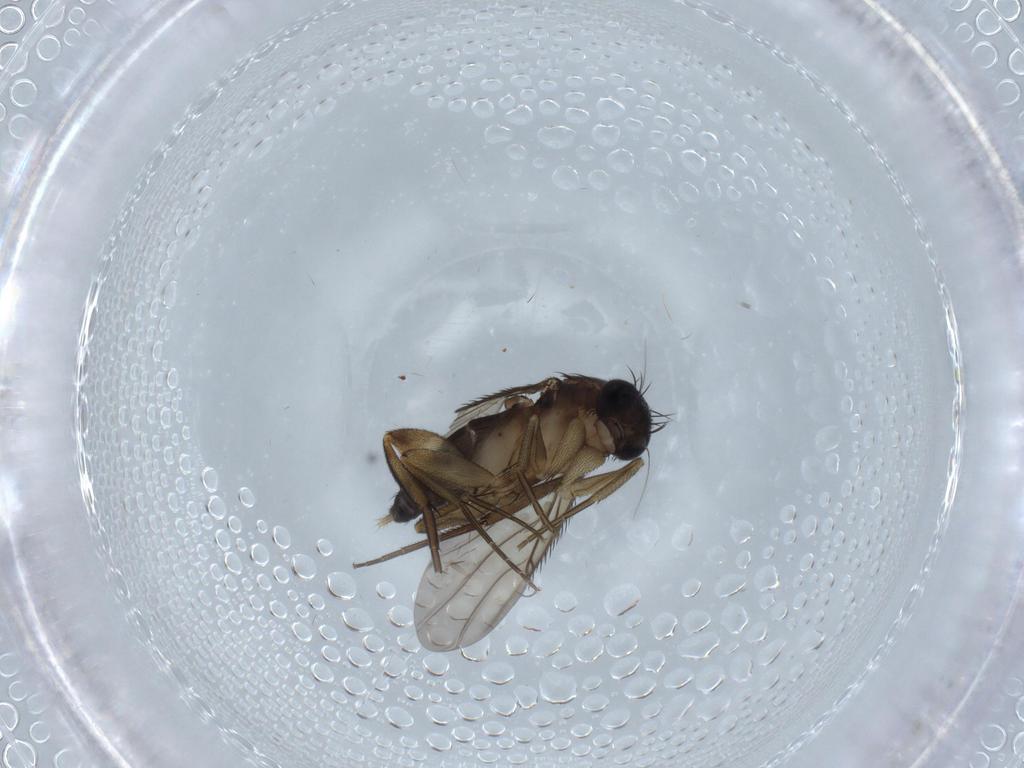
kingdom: Animalia
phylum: Arthropoda
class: Insecta
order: Diptera
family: Phoridae
